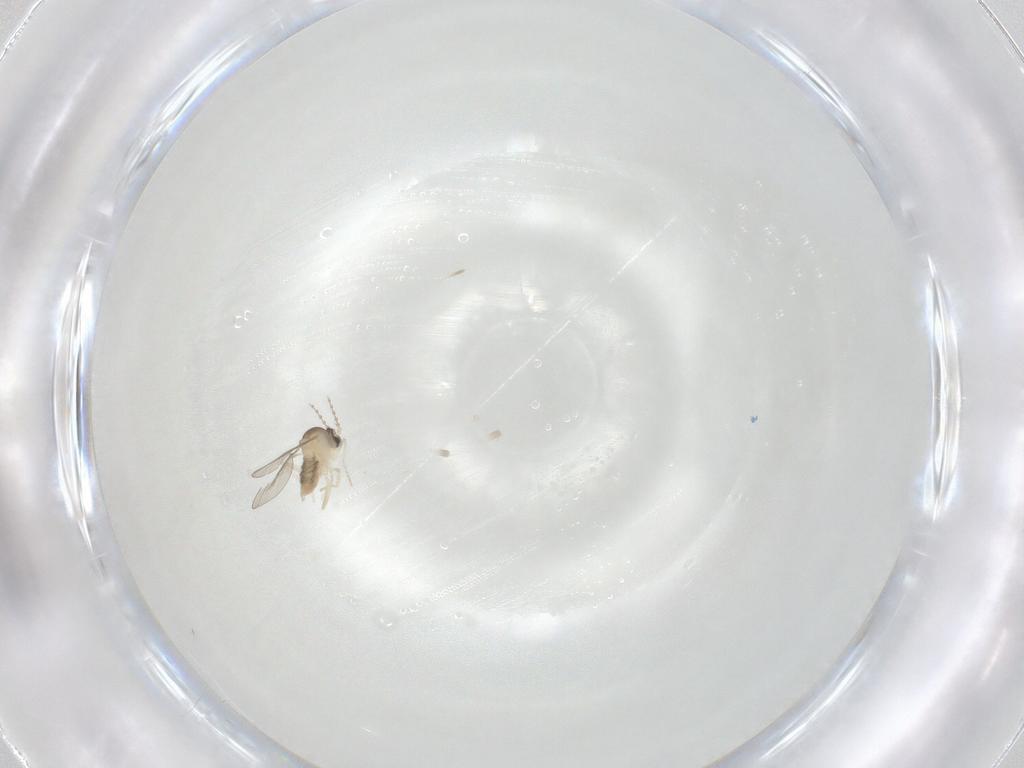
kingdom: Animalia
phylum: Arthropoda
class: Insecta
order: Diptera
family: Cecidomyiidae
